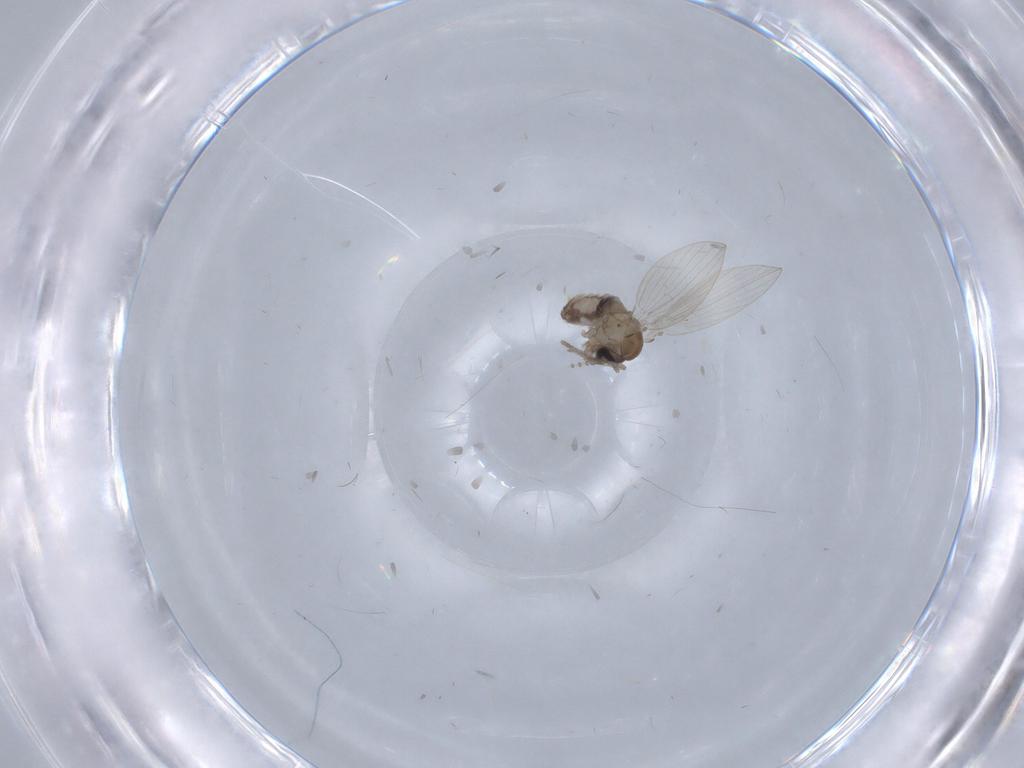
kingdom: Animalia
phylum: Arthropoda
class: Insecta
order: Diptera
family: Psychodidae
